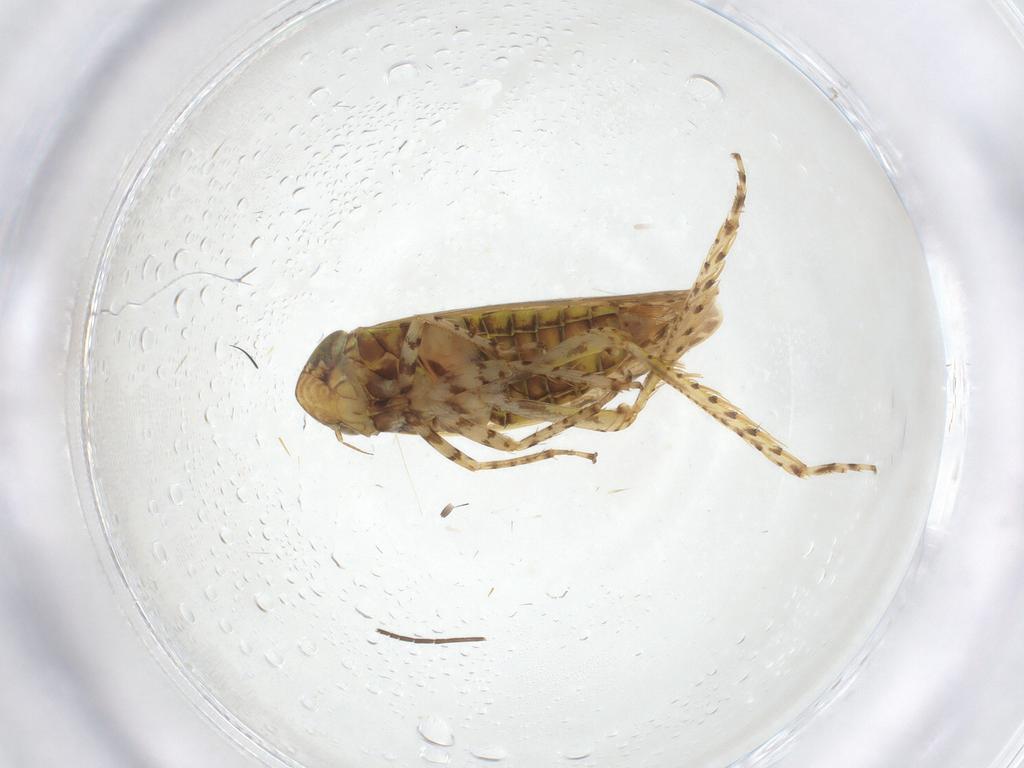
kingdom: Animalia
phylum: Arthropoda
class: Insecta
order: Hemiptera
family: Cicadellidae
